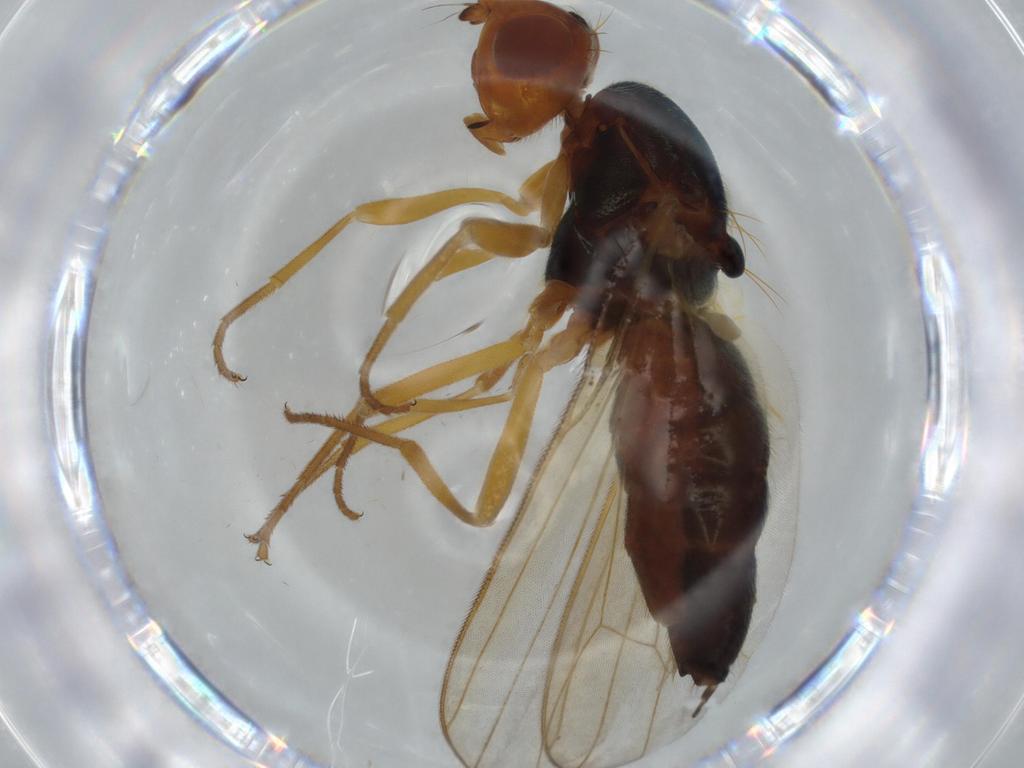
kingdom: Animalia
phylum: Arthropoda
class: Insecta
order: Diptera
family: Hybotidae
